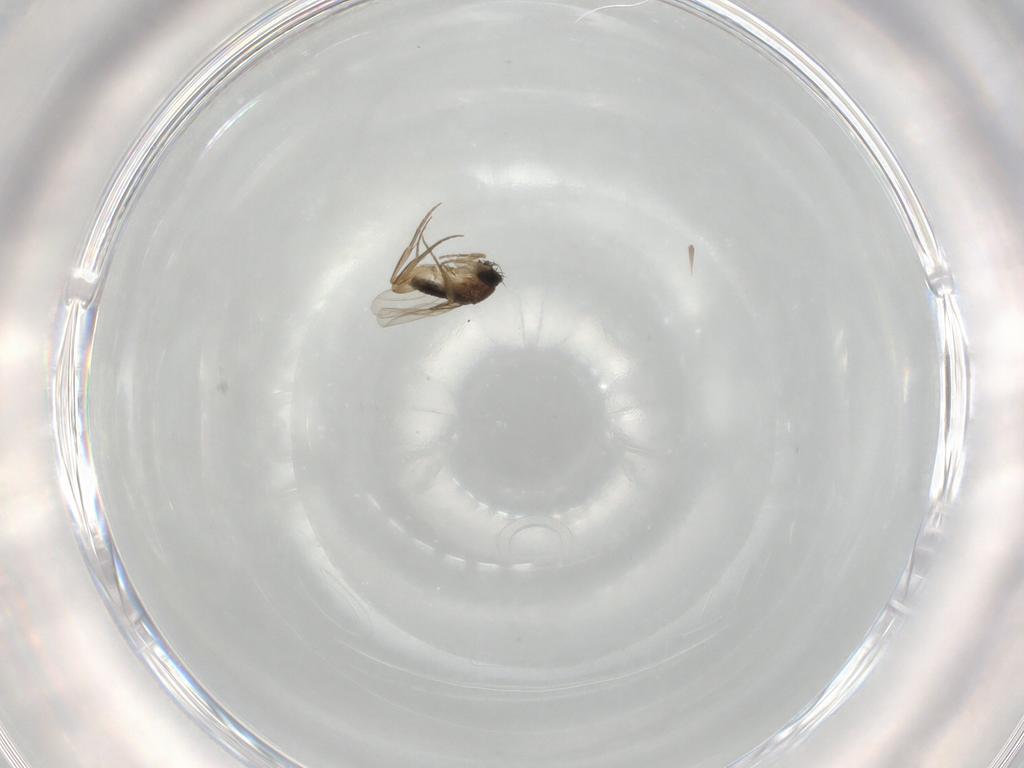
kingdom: Animalia
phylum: Arthropoda
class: Insecta
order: Diptera
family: Phoridae
